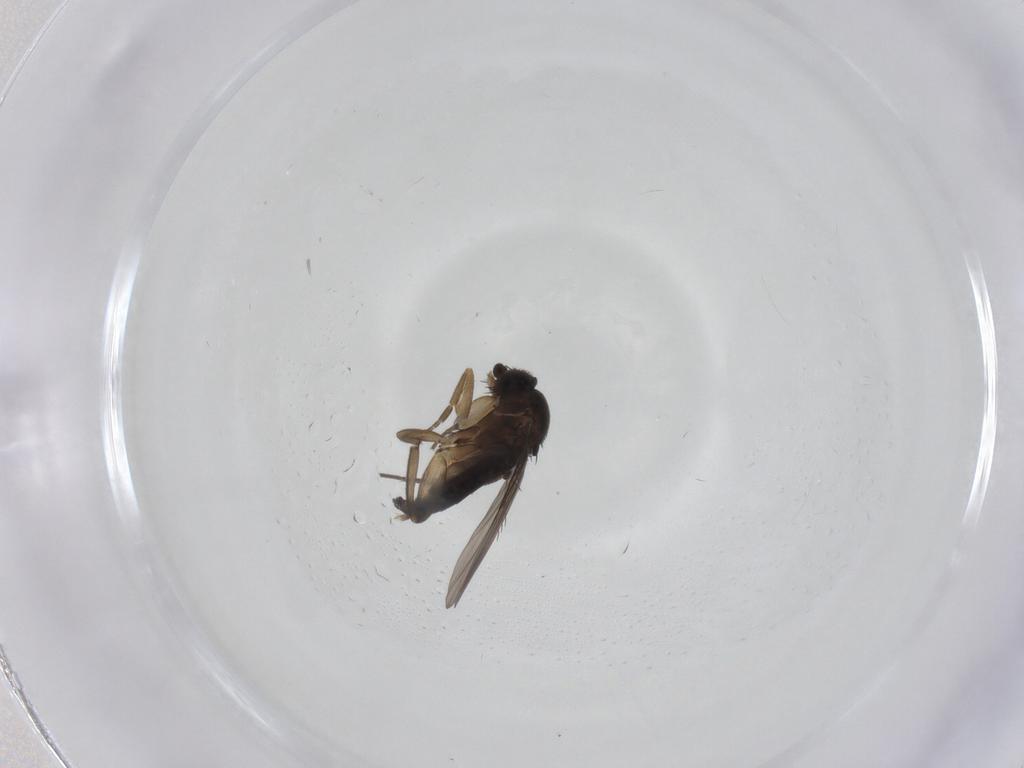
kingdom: Animalia
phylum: Arthropoda
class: Insecta
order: Diptera
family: Phoridae
